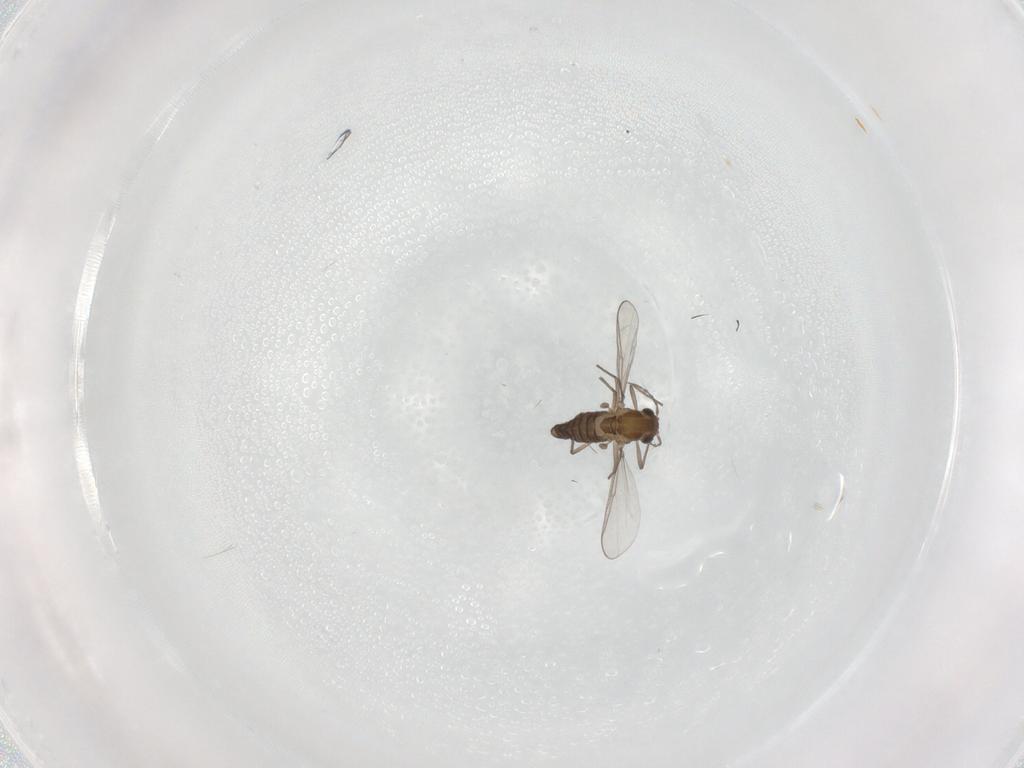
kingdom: Animalia
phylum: Arthropoda
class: Insecta
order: Diptera
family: Chironomidae
